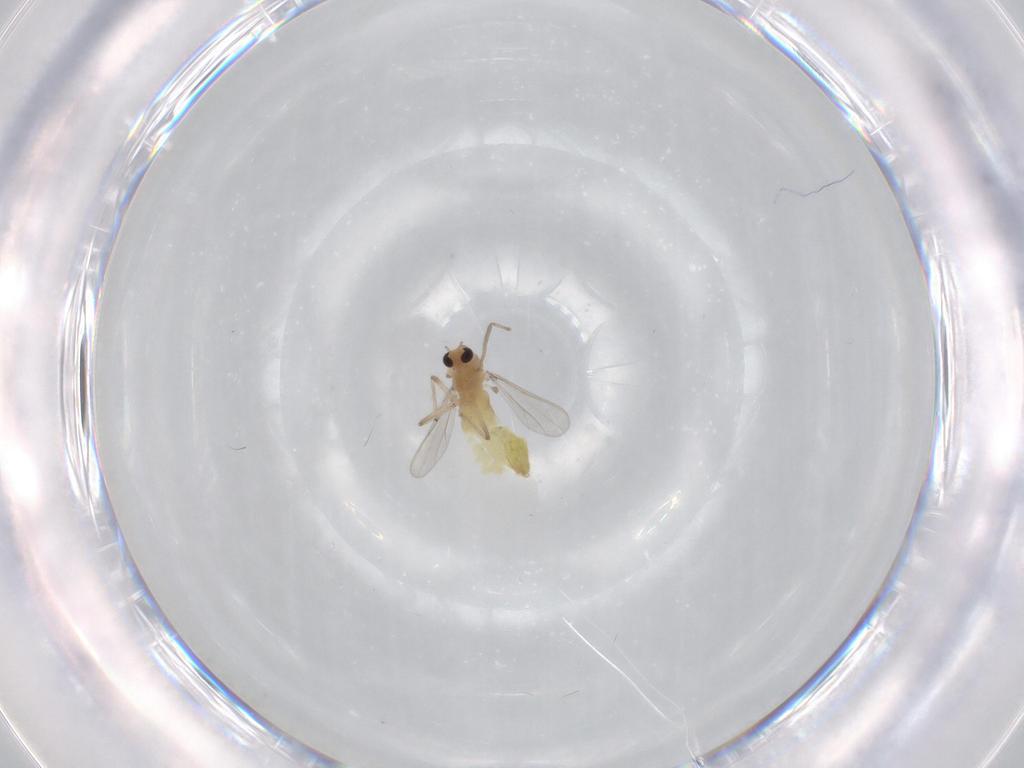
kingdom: Animalia
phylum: Arthropoda
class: Insecta
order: Diptera
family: Chironomidae
